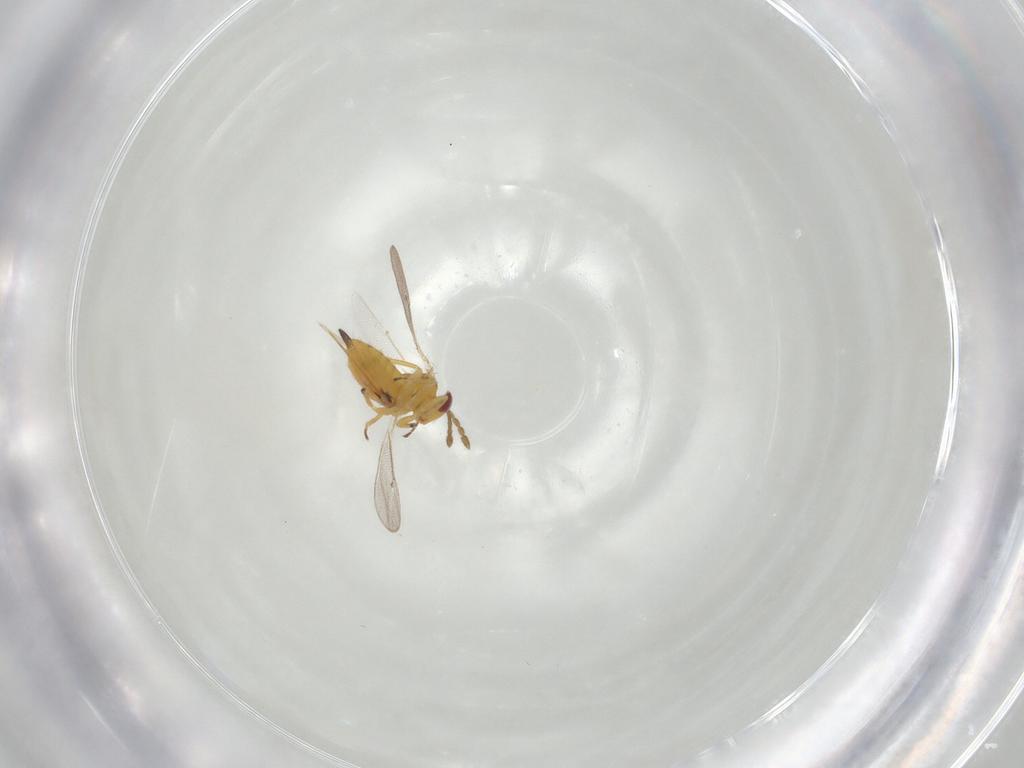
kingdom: Animalia
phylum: Arthropoda
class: Insecta
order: Hymenoptera
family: Eulophidae
